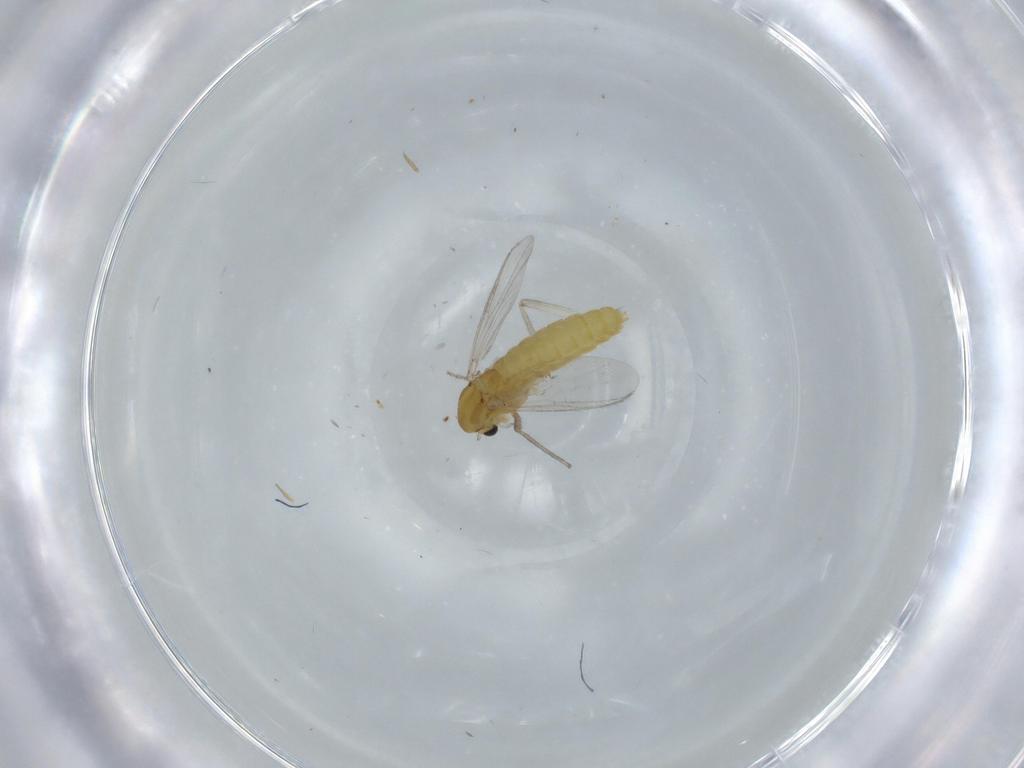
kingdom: Animalia
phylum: Arthropoda
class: Insecta
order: Diptera
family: Chironomidae
